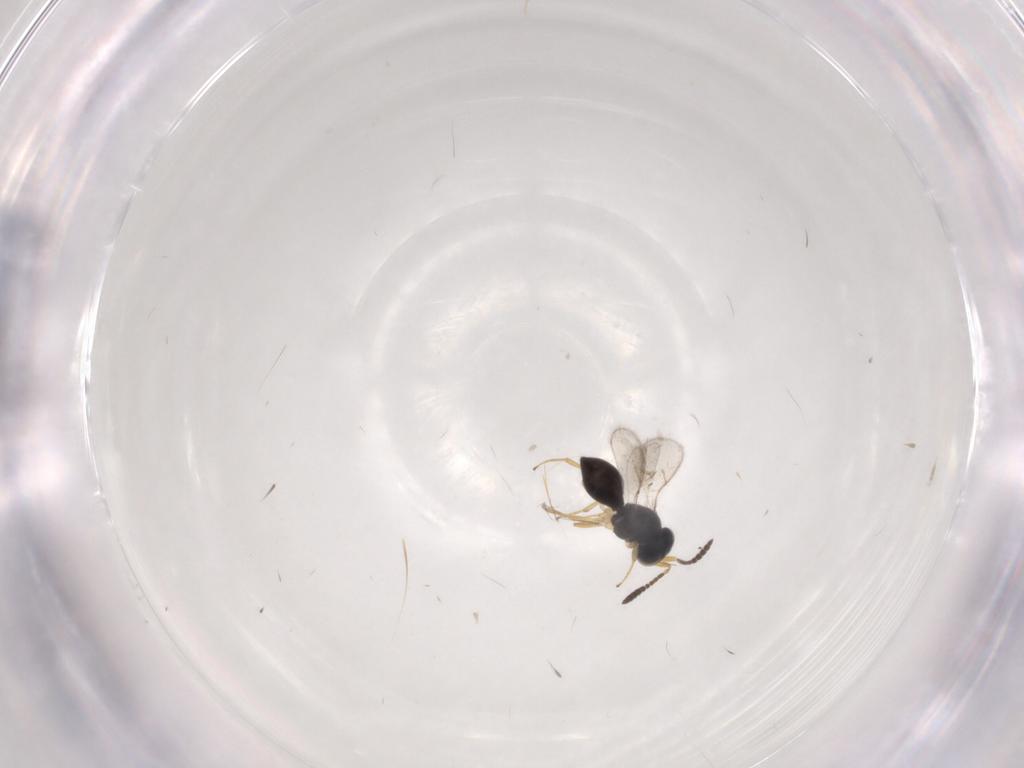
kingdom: Animalia
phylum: Arthropoda
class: Insecta
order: Hymenoptera
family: Scelionidae
